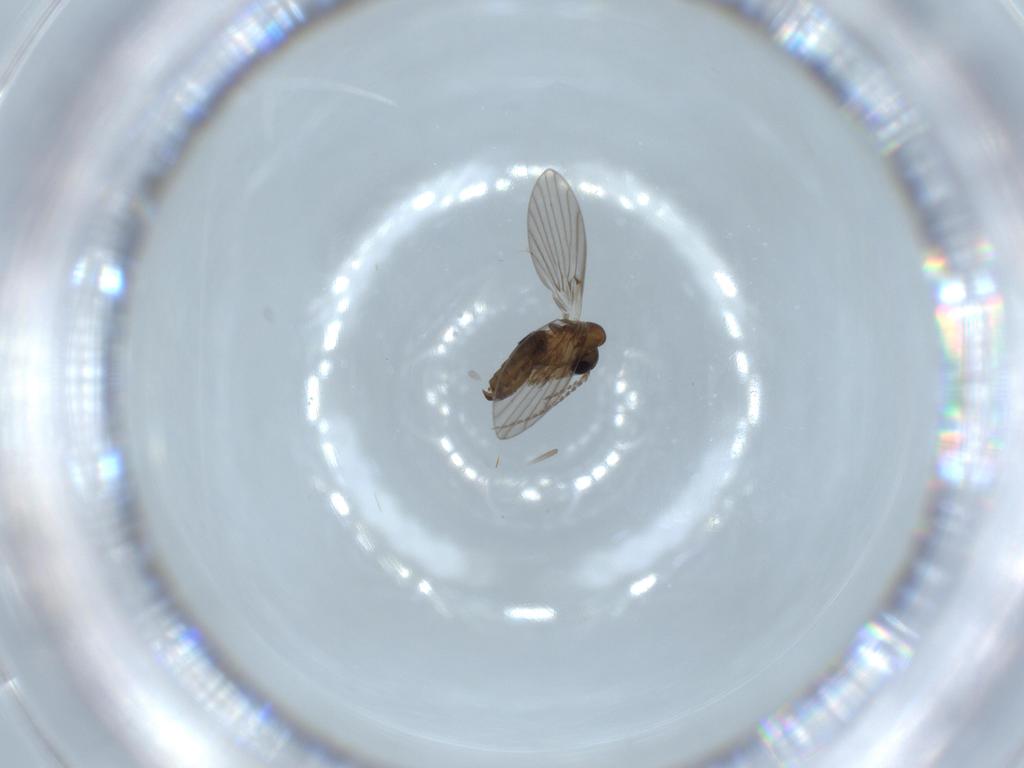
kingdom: Animalia
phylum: Arthropoda
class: Insecta
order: Diptera
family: Psychodidae
